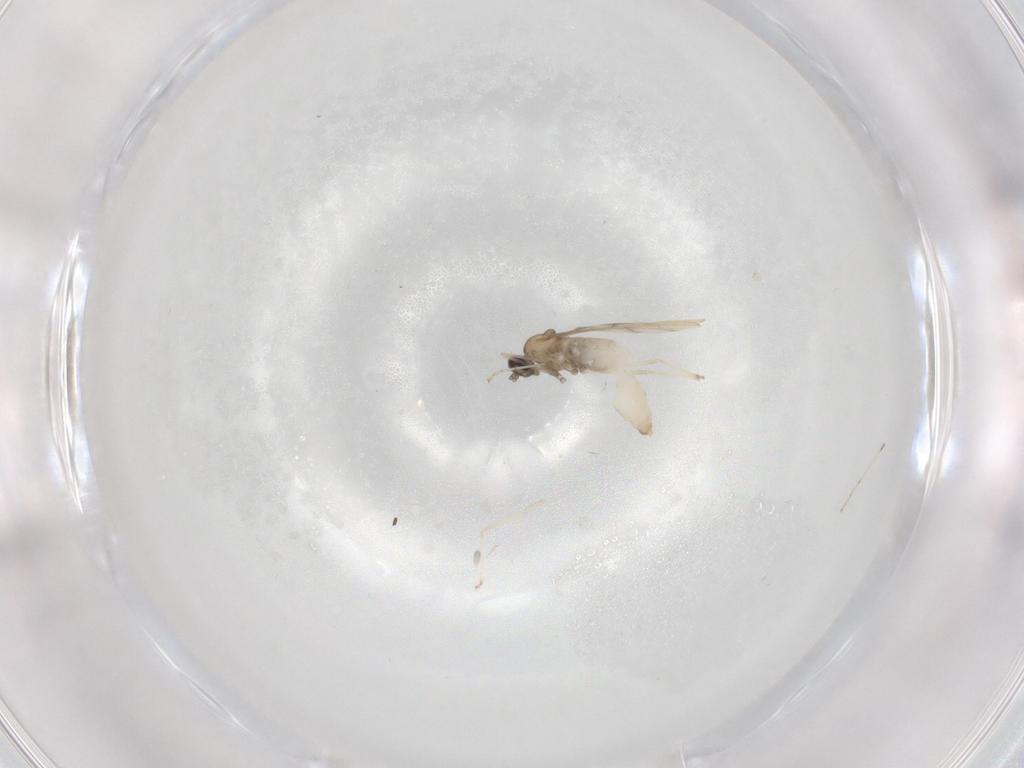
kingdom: Animalia
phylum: Arthropoda
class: Insecta
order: Diptera
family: Cecidomyiidae
